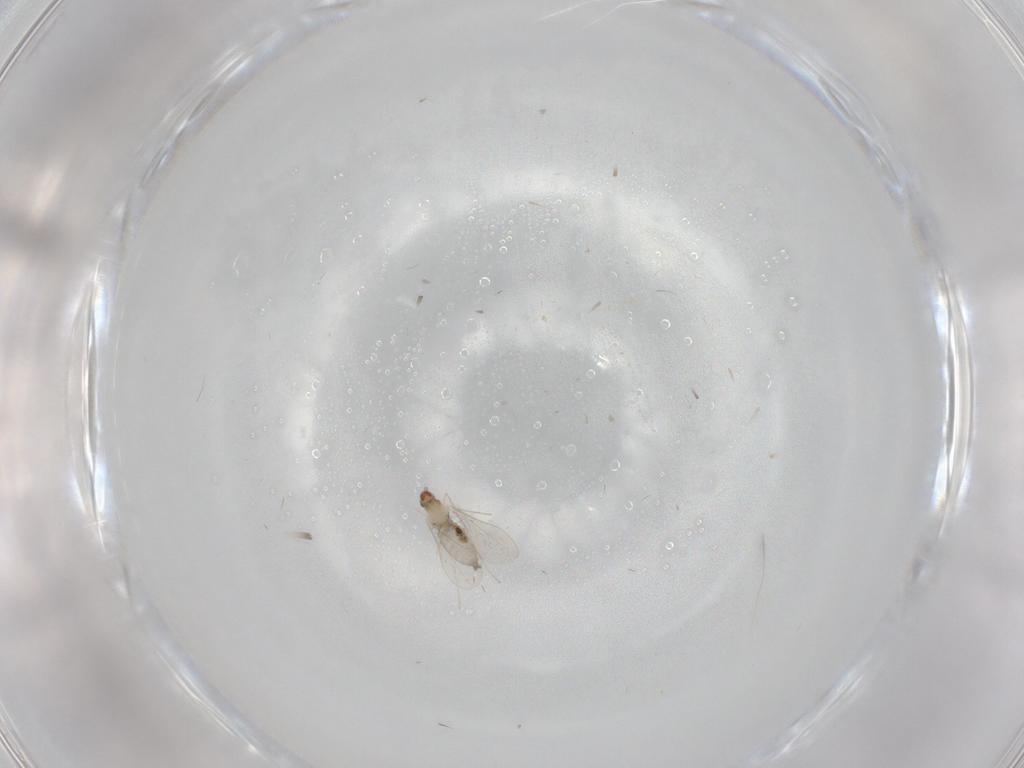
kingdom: Animalia
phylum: Arthropoda
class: Insecta
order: Diptera
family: Cecidomyiidae
